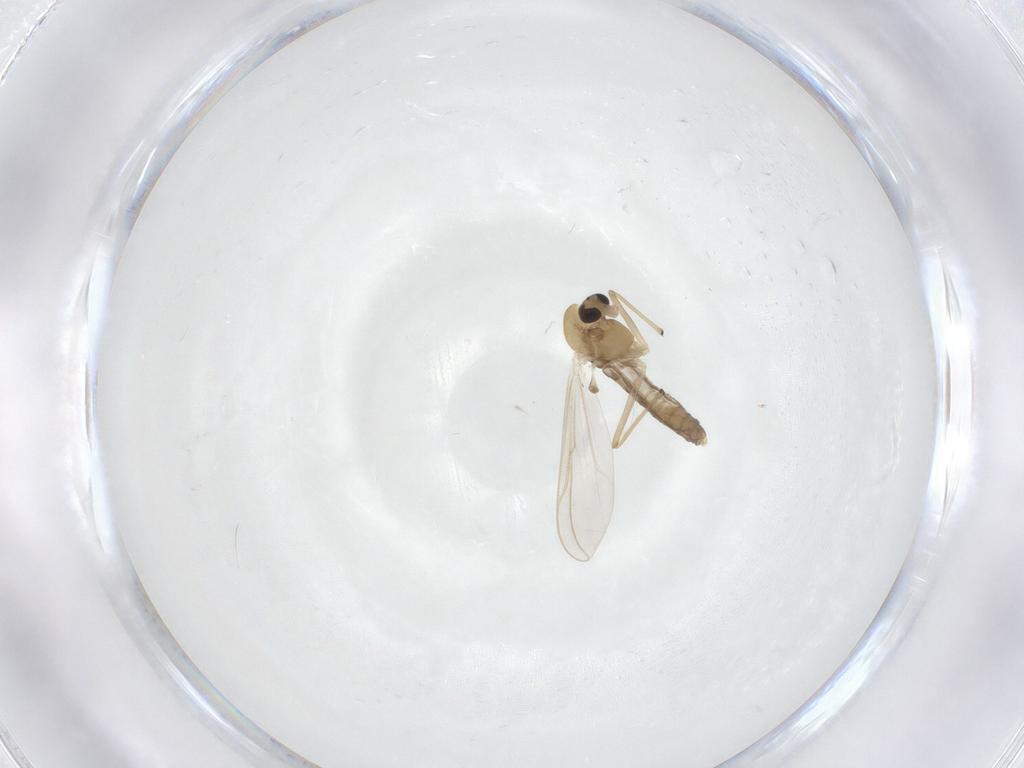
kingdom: Animalia
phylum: Arthropoda
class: Insecta
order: Diptera
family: Chironomidae
